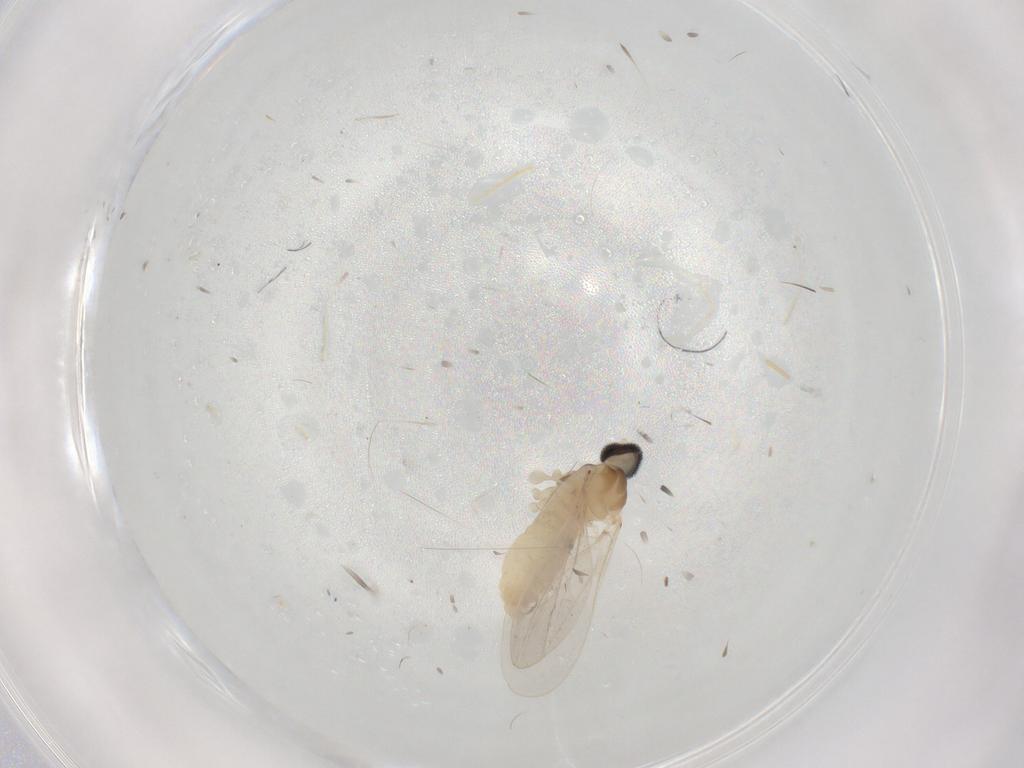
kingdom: Animalia
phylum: Arthropoda
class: Insecta
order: Diptera
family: Cecidomyiidae
